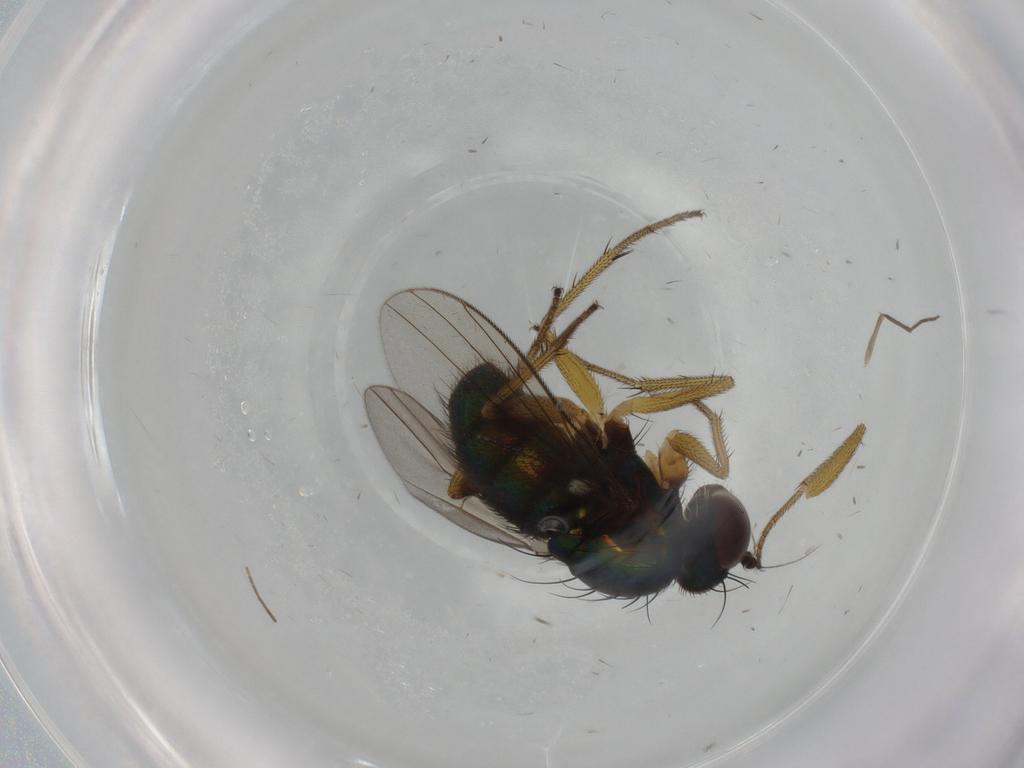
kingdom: Animalia
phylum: Arthropoda
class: Insecta
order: Diptera
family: Dolichopodidae
